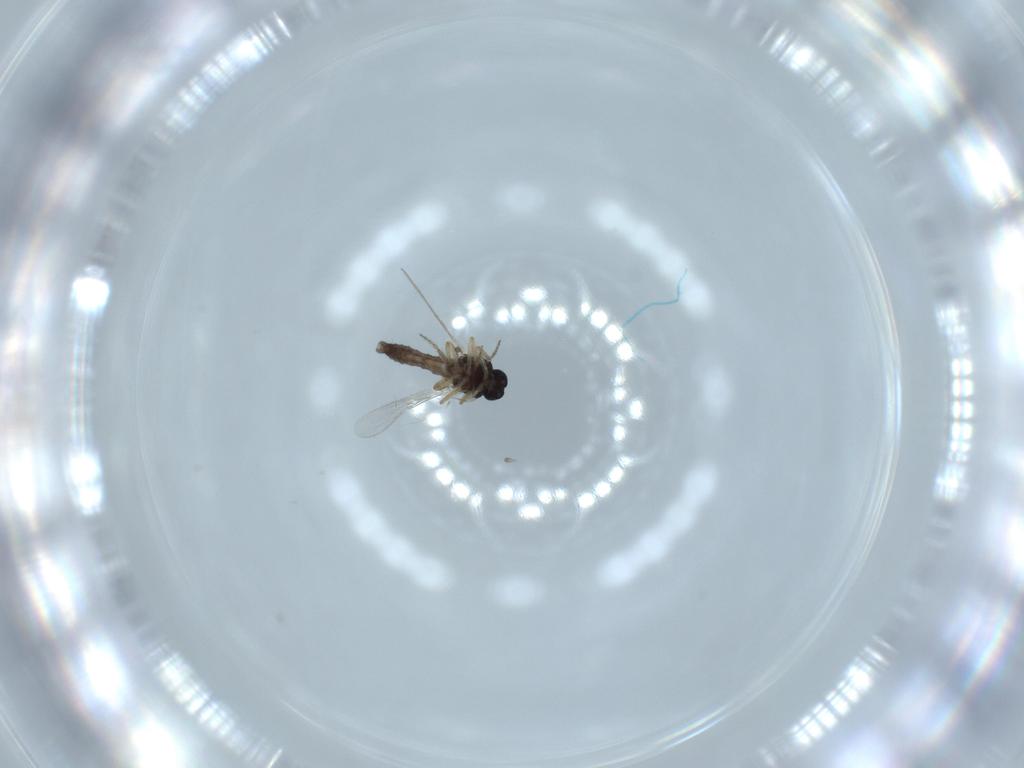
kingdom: Animalia
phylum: Arthropoda
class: Insecta
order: Diptera
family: Ceratopogonidae
